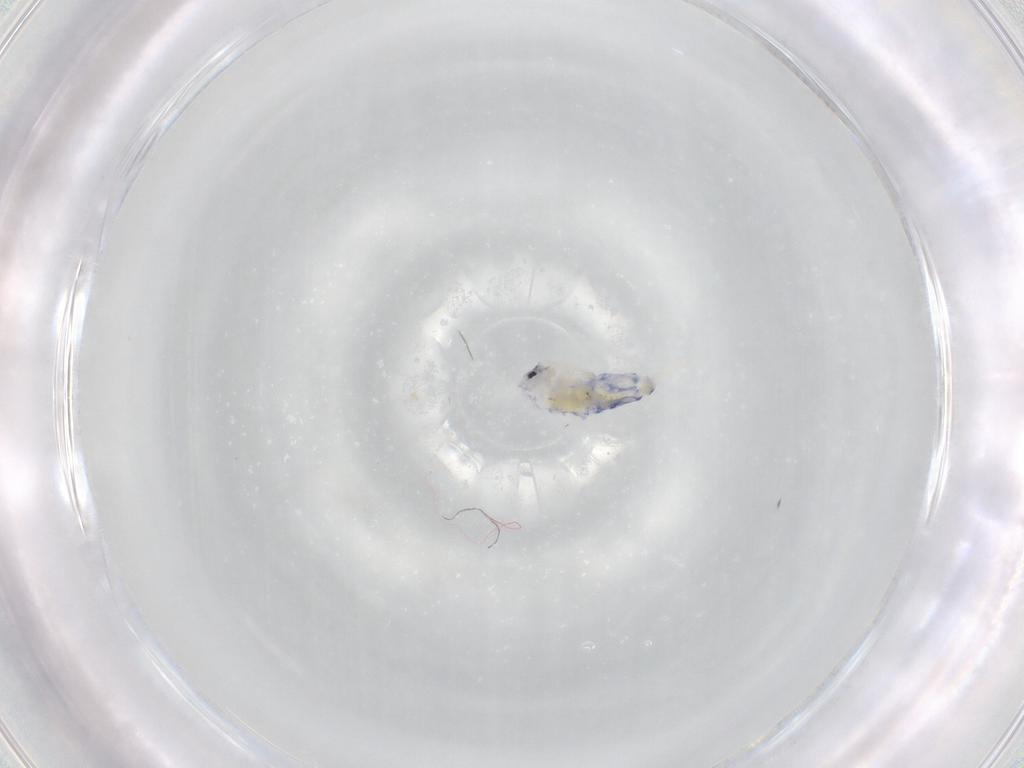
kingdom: Animalia
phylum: Arthropoda
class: Collembola
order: Entomobryomorpha
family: Entomobryidae
